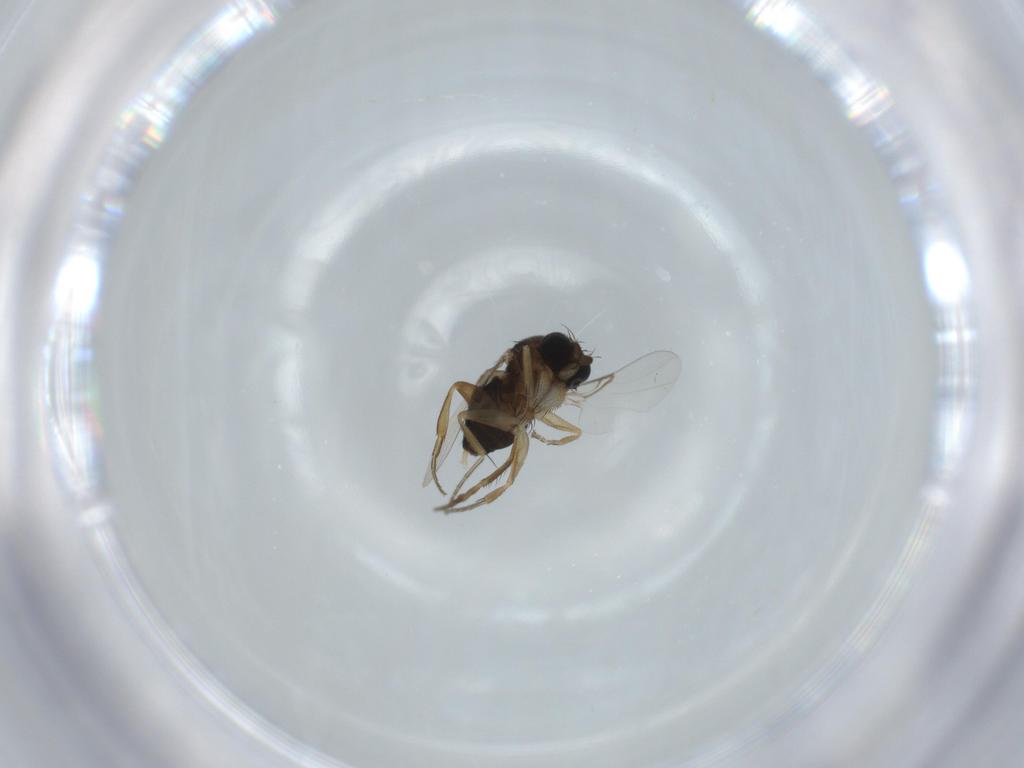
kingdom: Animalia
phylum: Arthropoda
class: Insecta
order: Diptera
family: Phoridae
